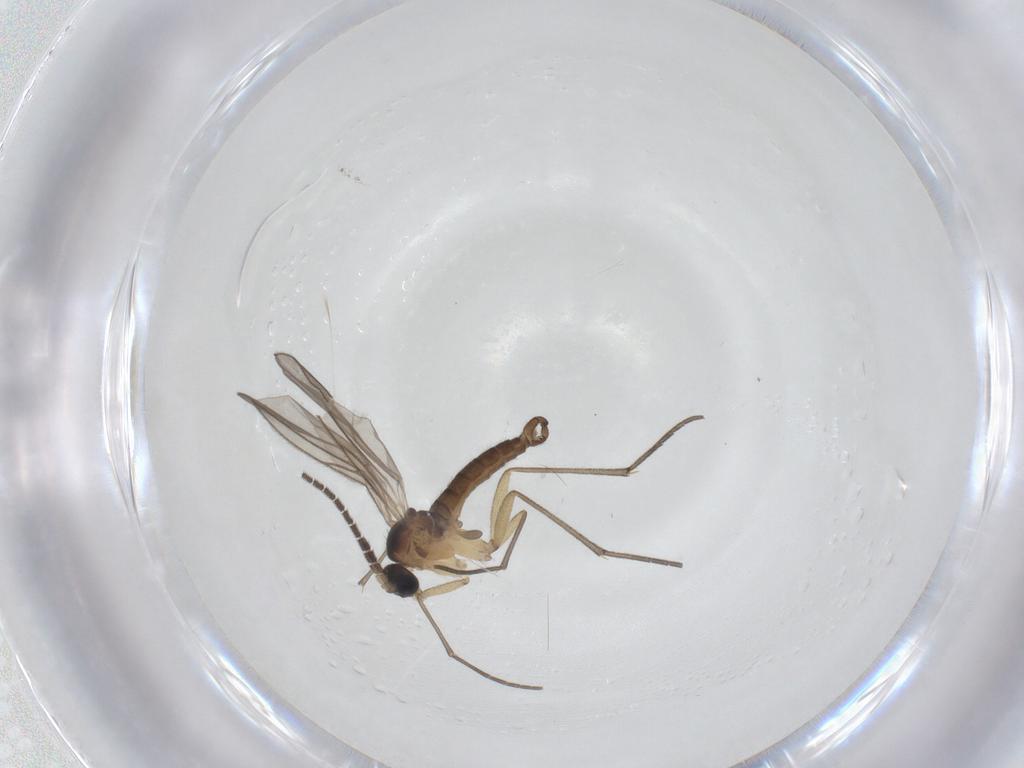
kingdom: Animalia
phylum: Arthropoda
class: Insecta
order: Diptera
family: Sciaridae
